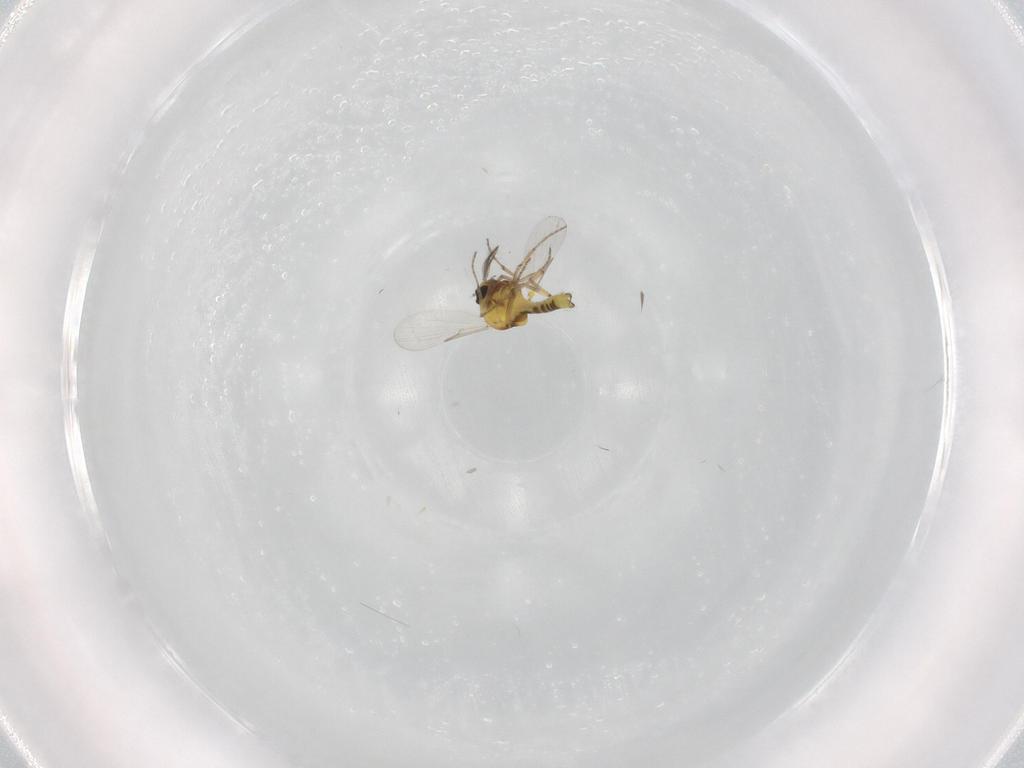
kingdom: Animalia
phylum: Arthropoda
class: Insecta
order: Diptera
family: Ceratopogonidae
